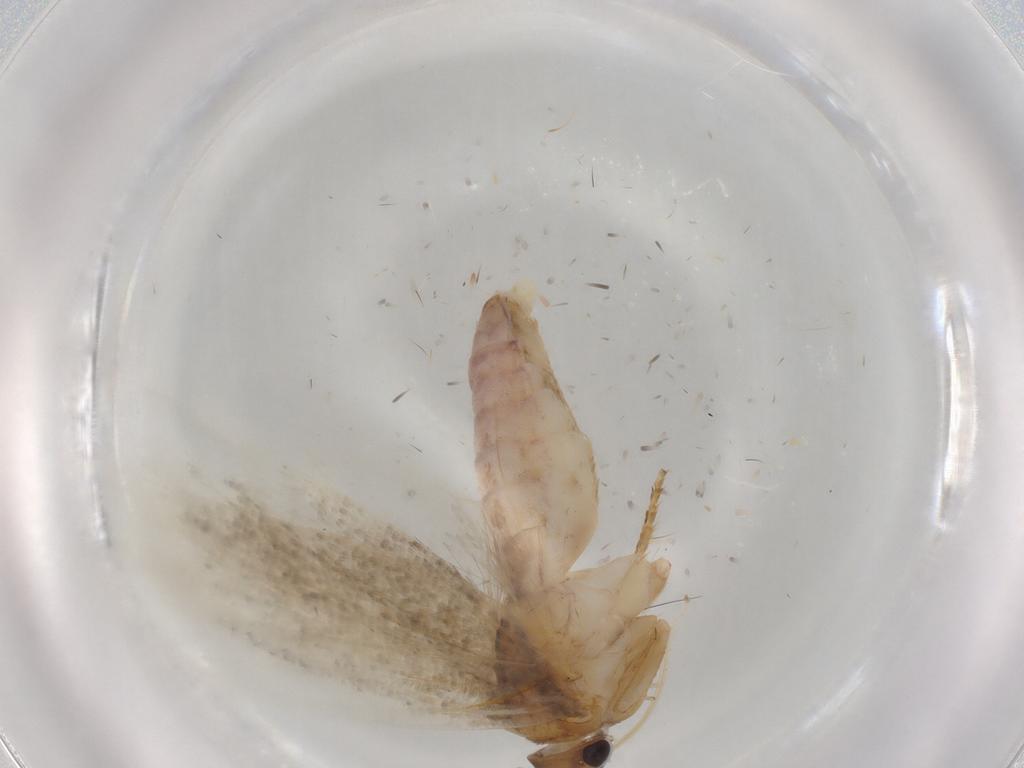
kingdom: Animalia
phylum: Arthropoda
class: Insecta
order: Lepidoptera
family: Gelechiidae
